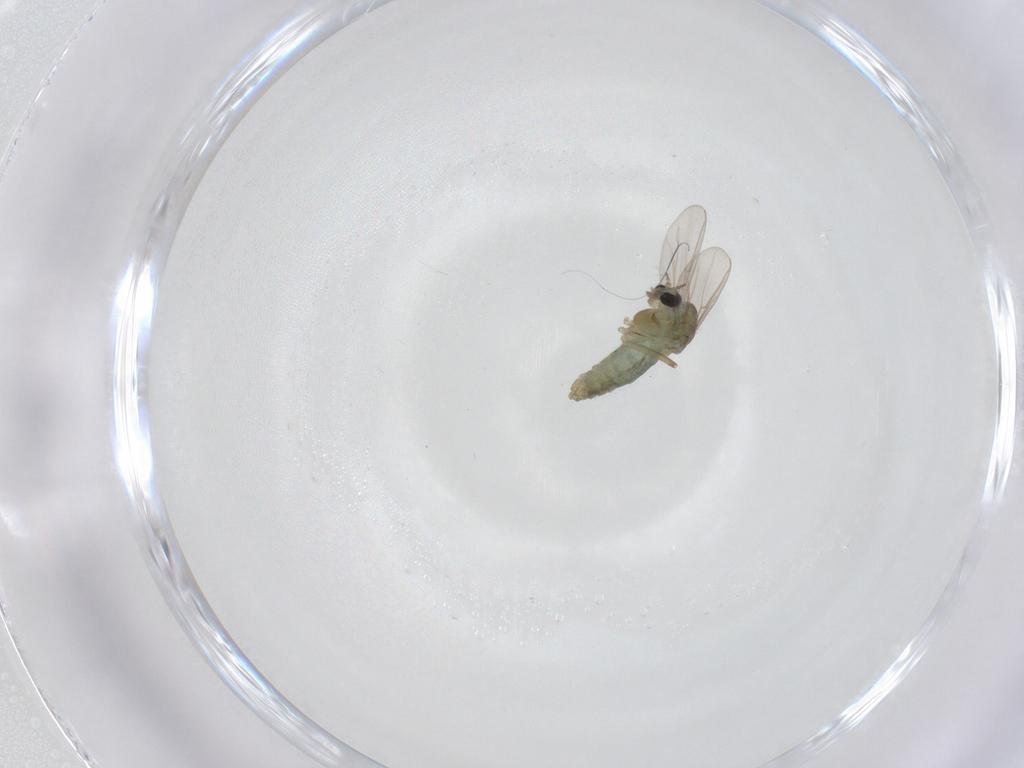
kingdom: Animalia
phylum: Arthropoda
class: Insecta
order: Diptera
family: Chironomidae
